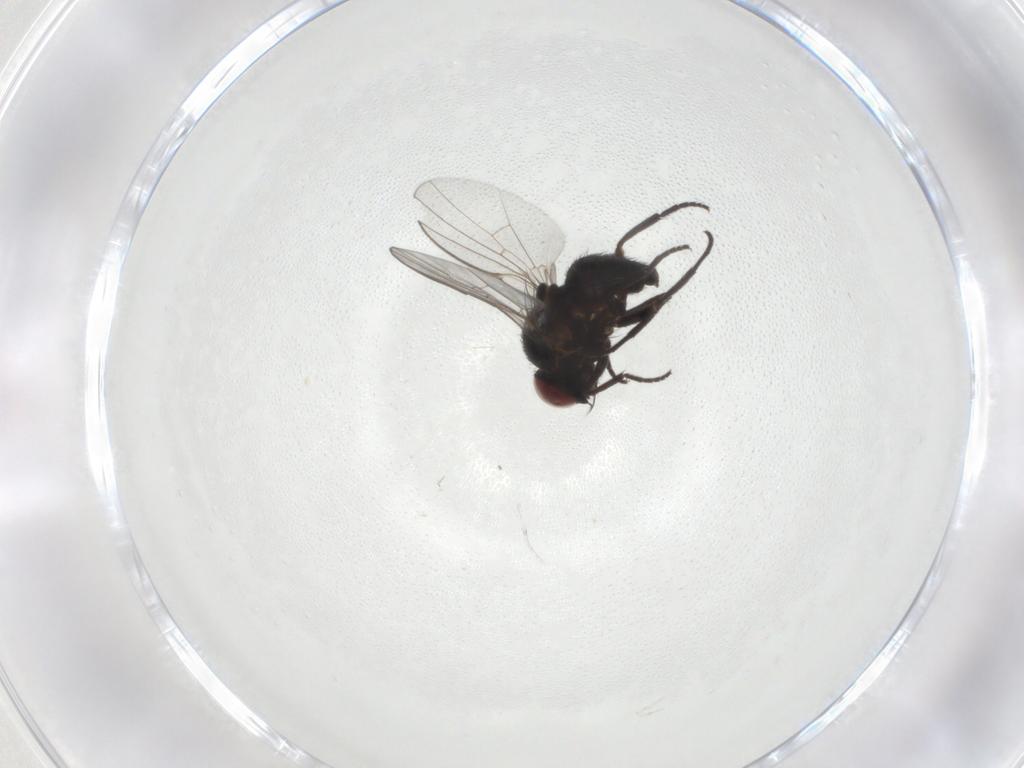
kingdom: Animalia
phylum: Arthropoda
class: Insecta
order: Diptera
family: Agromyzidae
